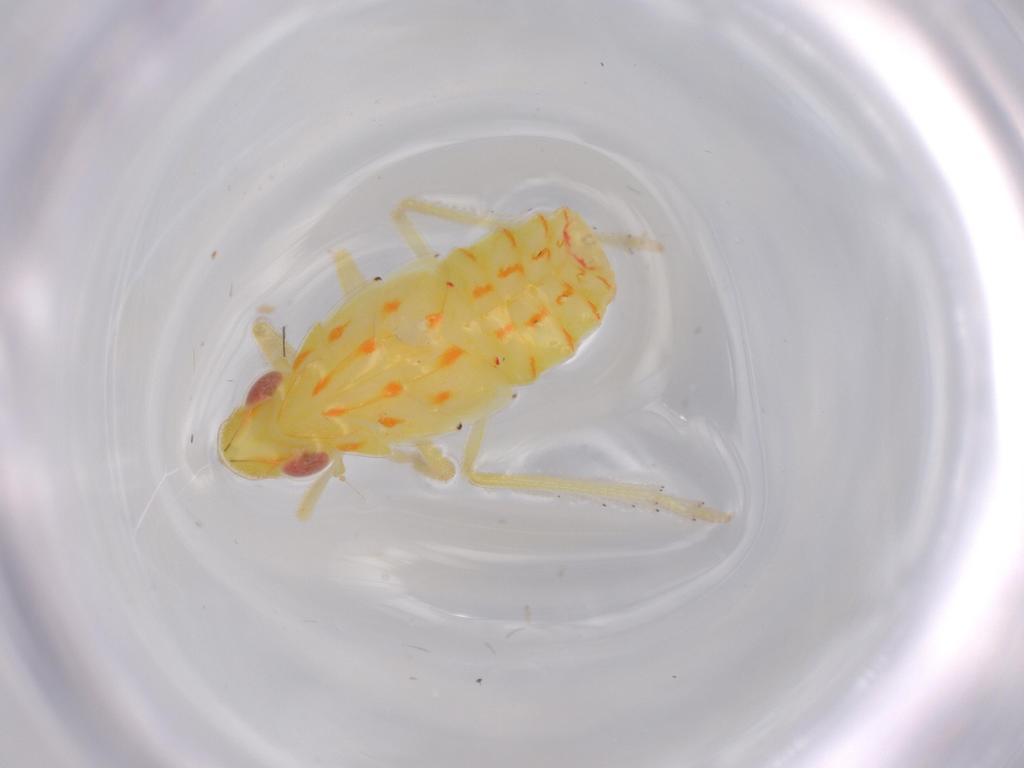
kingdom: Animalia
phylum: Arthropoda
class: Insecta
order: Hemiptera
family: Tropiduchidae
